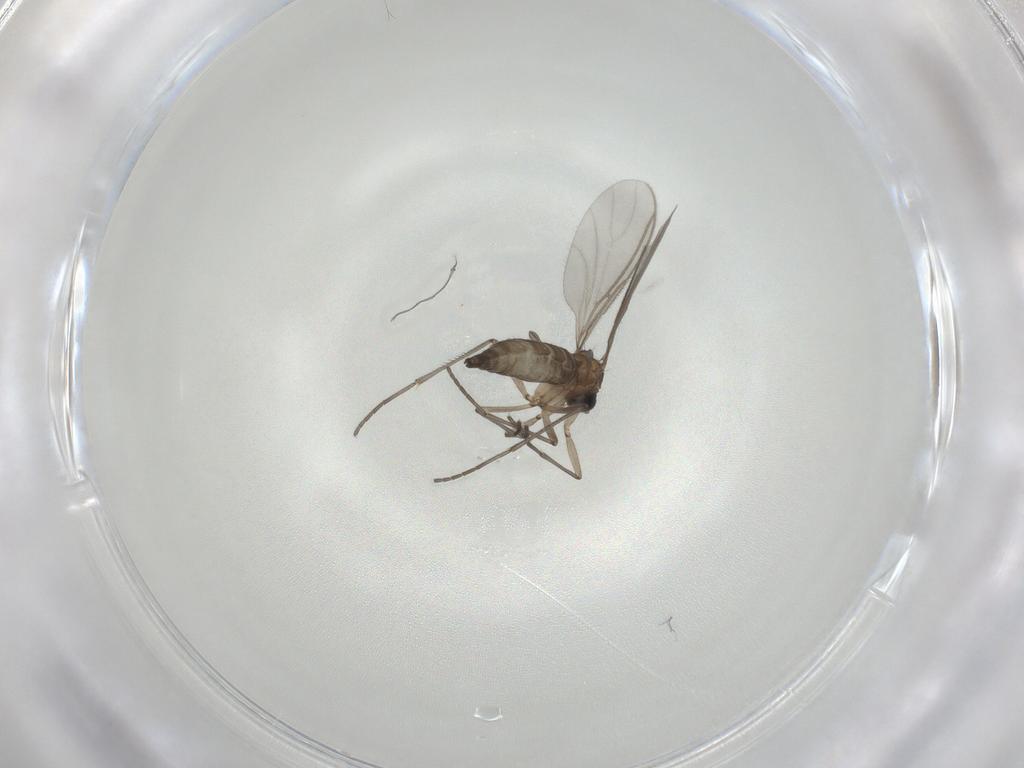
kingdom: Animalia
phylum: Arthropoda
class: Insecta
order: Diptera
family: Sciaridae
